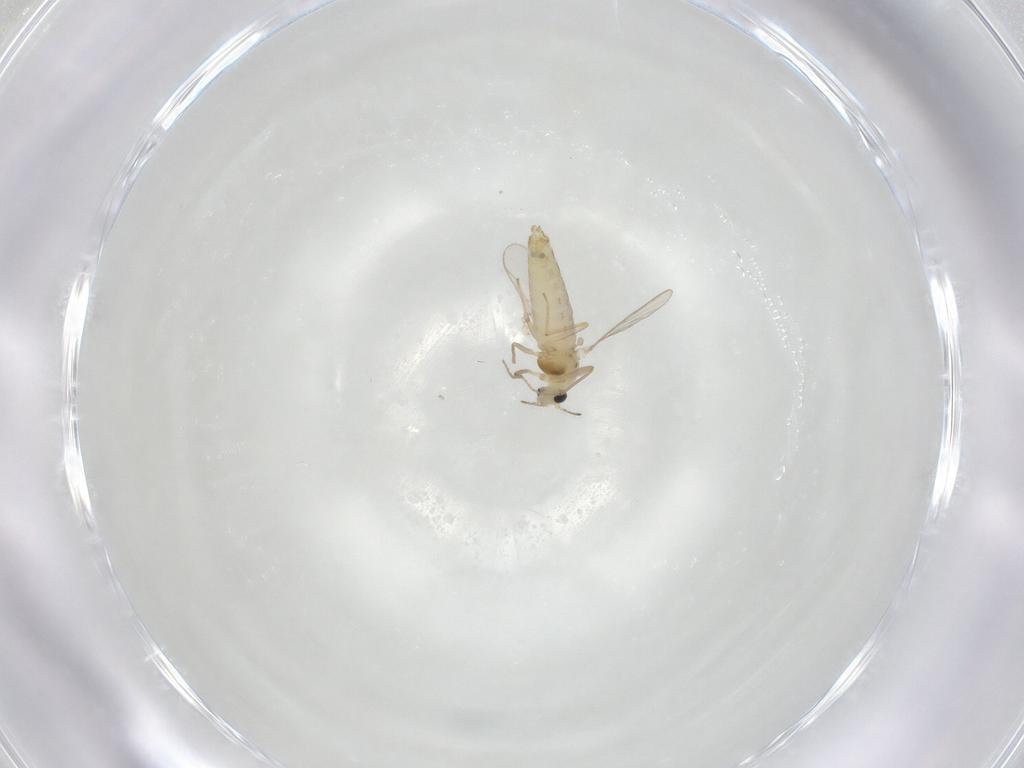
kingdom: Animalia
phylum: Arthropoda
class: Insecta
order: Diptera
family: Chironomidae
